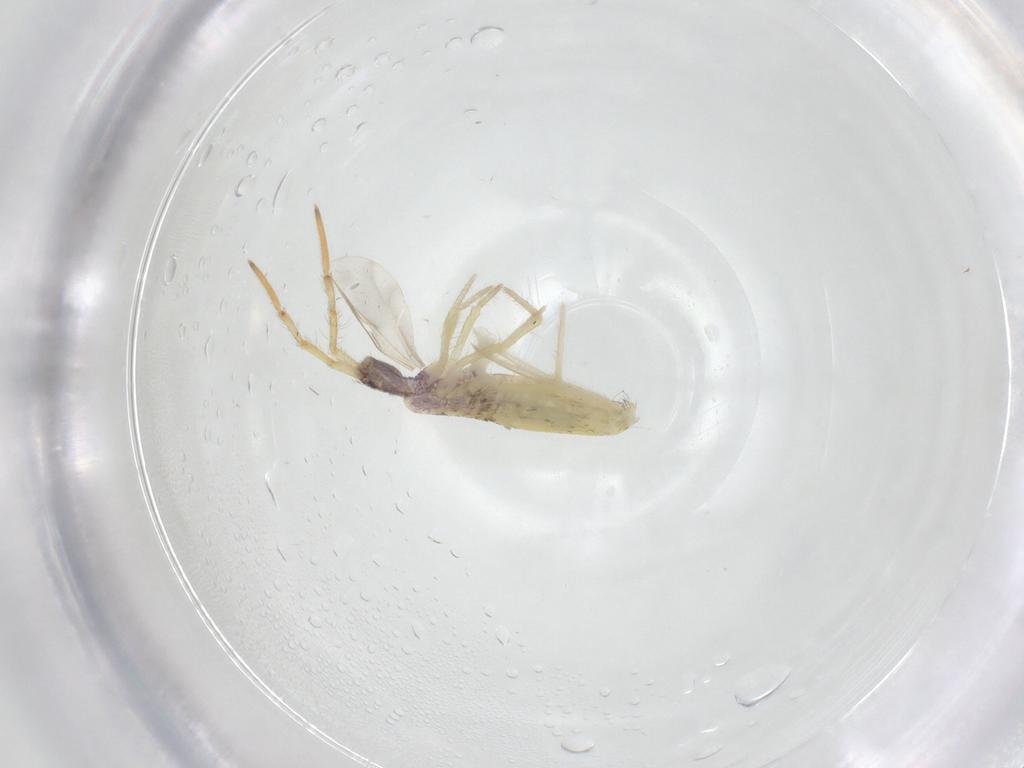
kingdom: Animalia
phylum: Arthropoda
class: Collembola
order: Entomobryomorpha
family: Entomobryidae
